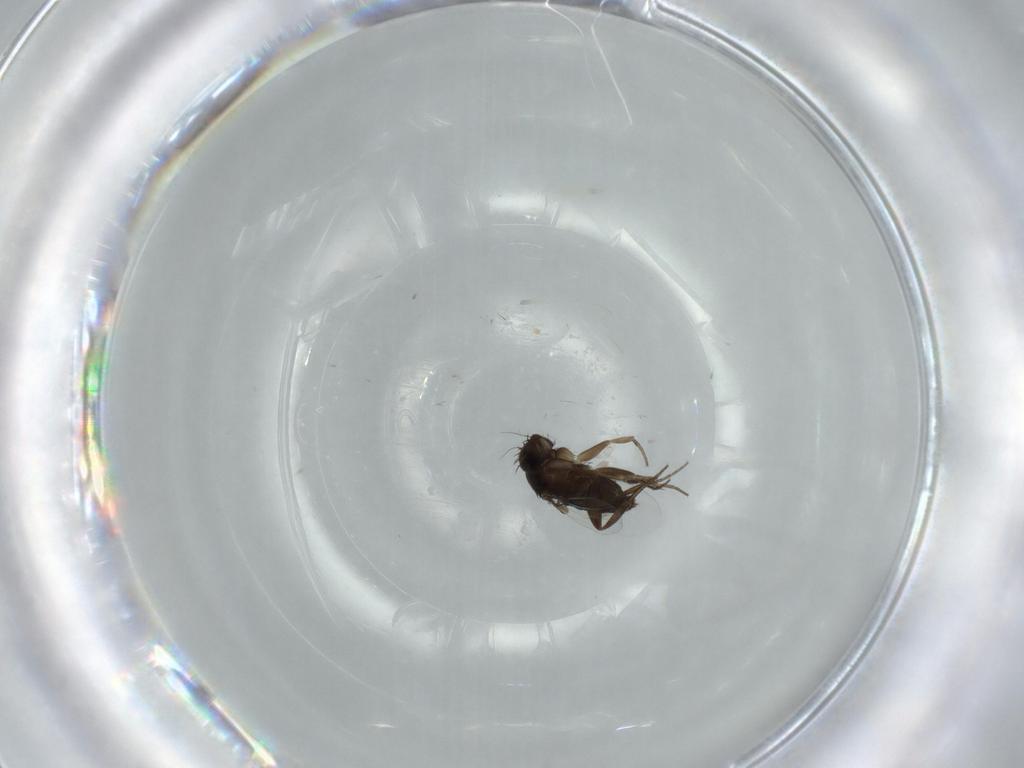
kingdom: Animalia
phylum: Arthropoda
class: Insecta
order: Diptera
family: Phoridae
